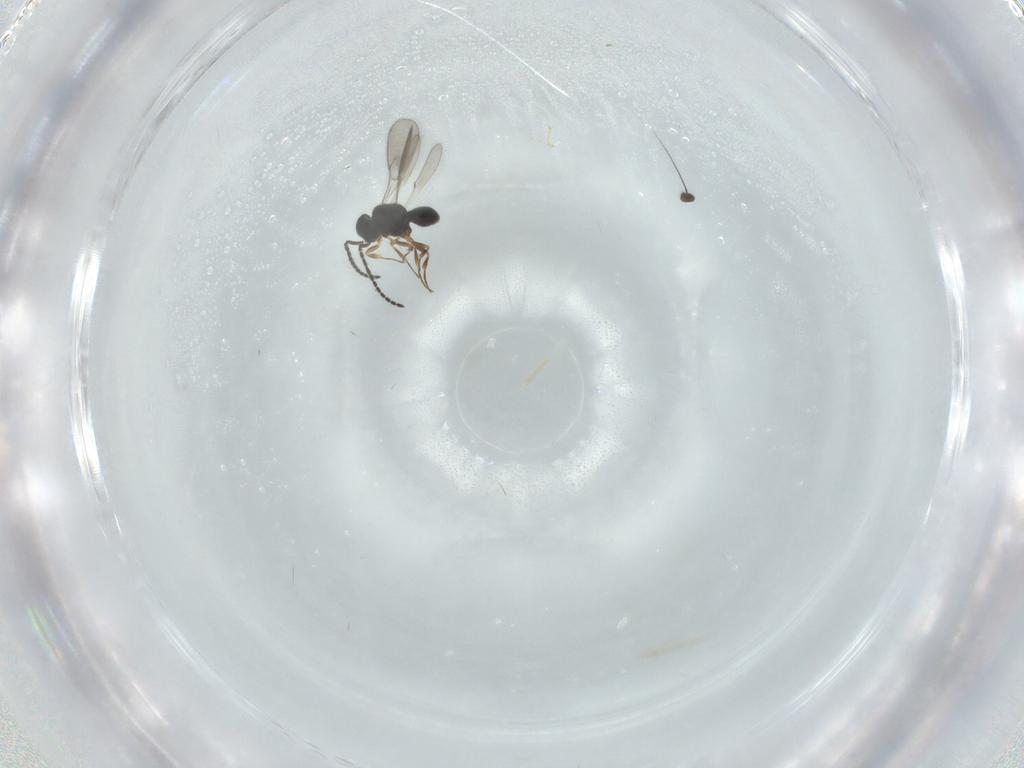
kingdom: Animalia
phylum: Arthropoda
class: Insecta
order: Hymenoptera
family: Scelionidae
